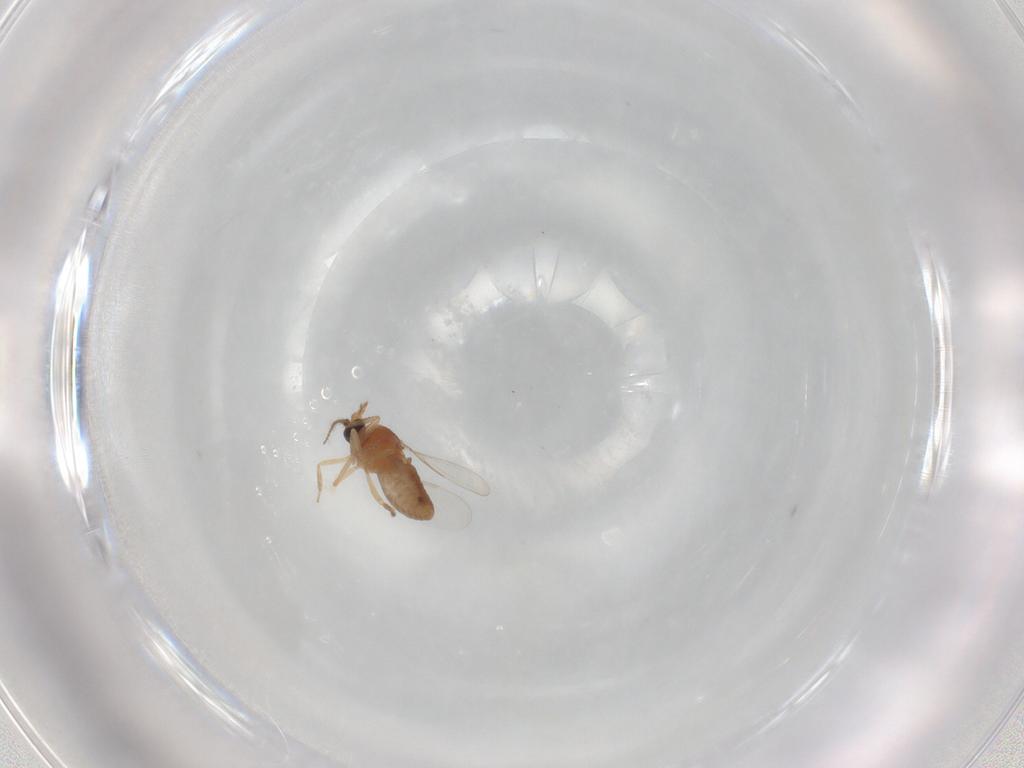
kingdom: Animalia
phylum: Arthropoda
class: Insecta
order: Diptera
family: Ceratopogonidae
